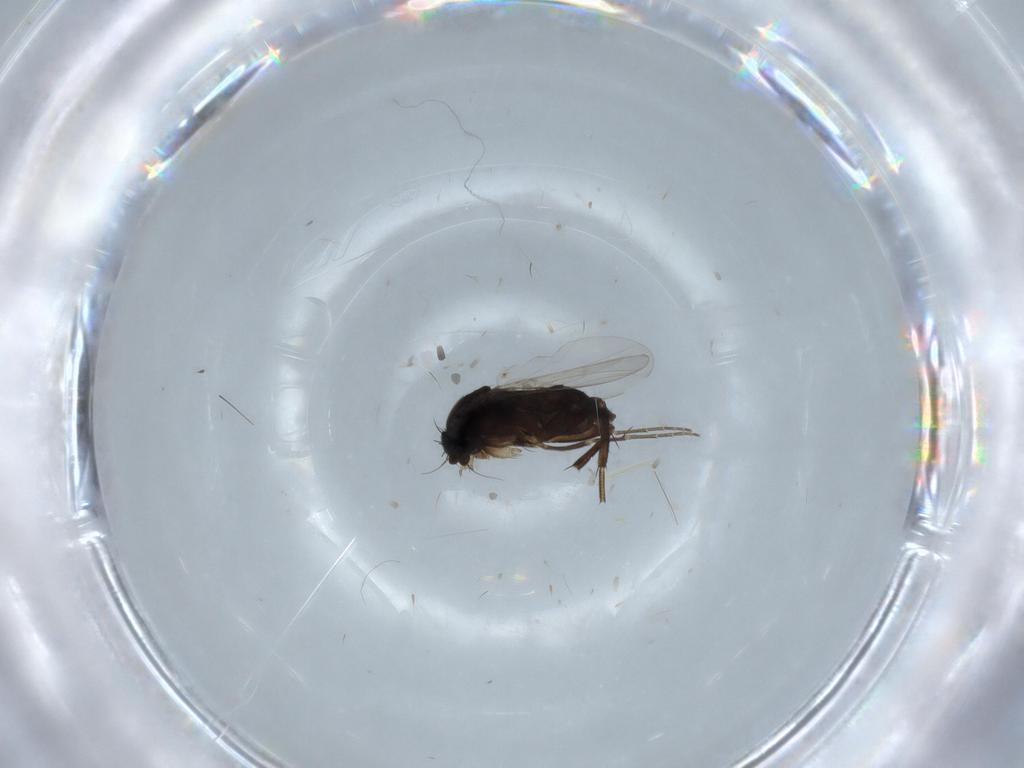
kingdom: Animalia
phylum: Arthropoda
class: Insecta
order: Diptera
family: Phoridae
